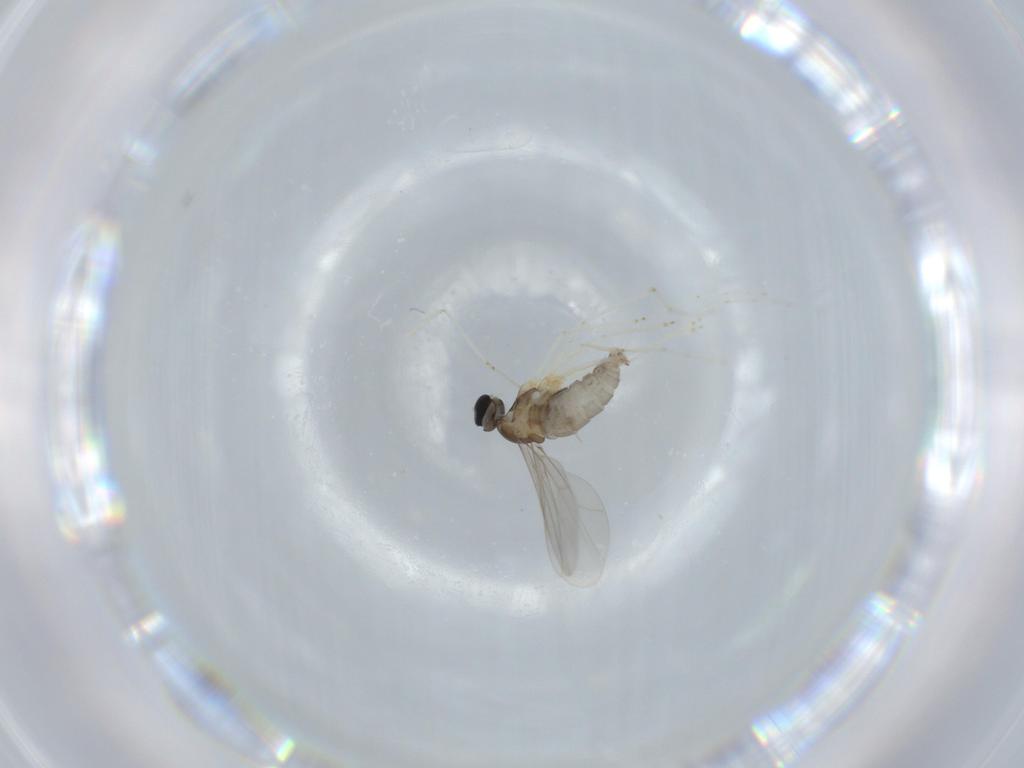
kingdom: Animalia
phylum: Arthropoda
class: Insecta
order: Diptera
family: Cecidomyiidae
